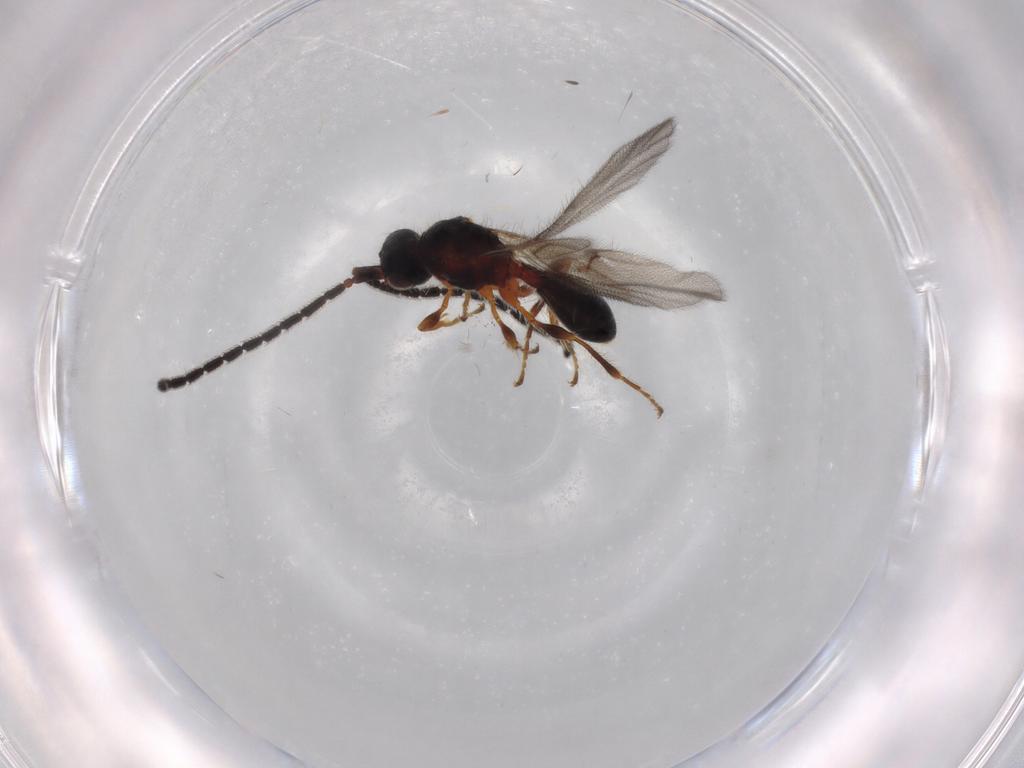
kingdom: Animalia
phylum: Arthropoda
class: Insecta
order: Hymenoptera
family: Diapriidae
